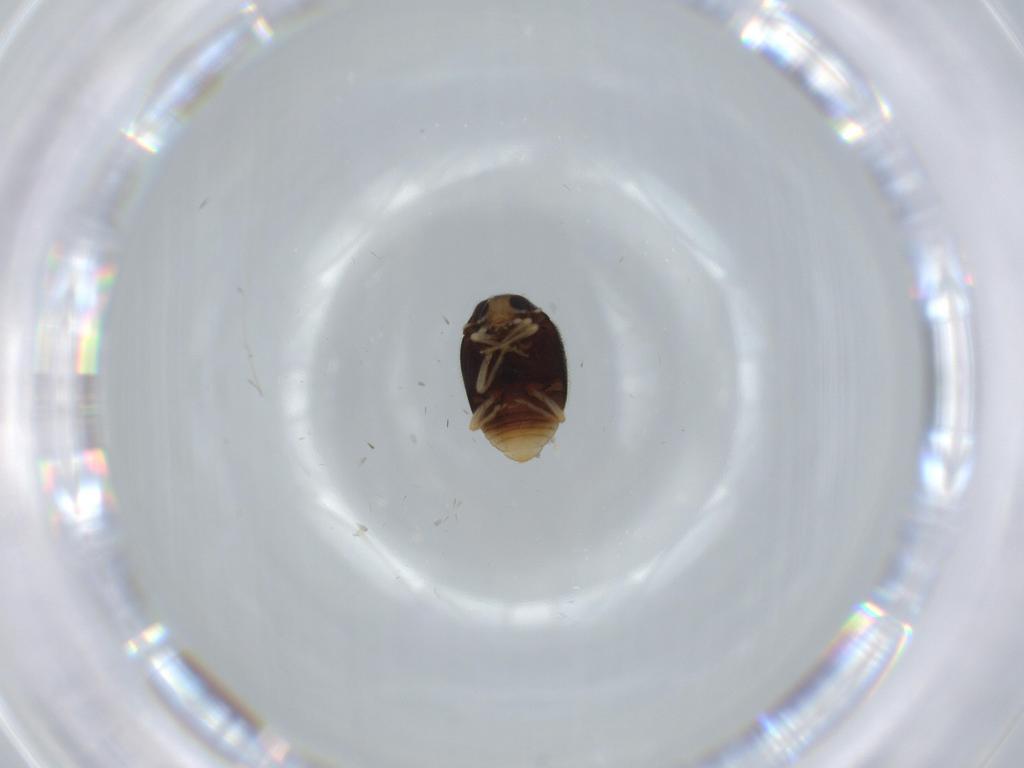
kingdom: Animalia
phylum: Arthropoda
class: Insecta
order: Coleoptera
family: Coccinellidae
